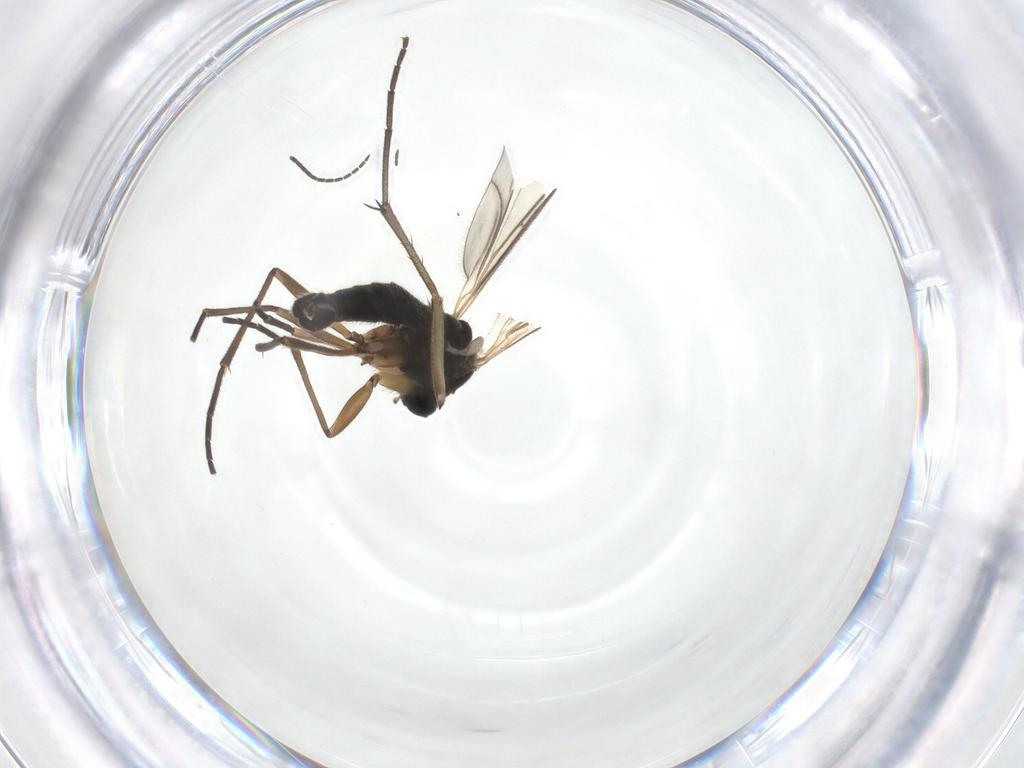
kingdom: Animalia
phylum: Arthropoda
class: Insecta
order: Diptera
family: Sciaridae
